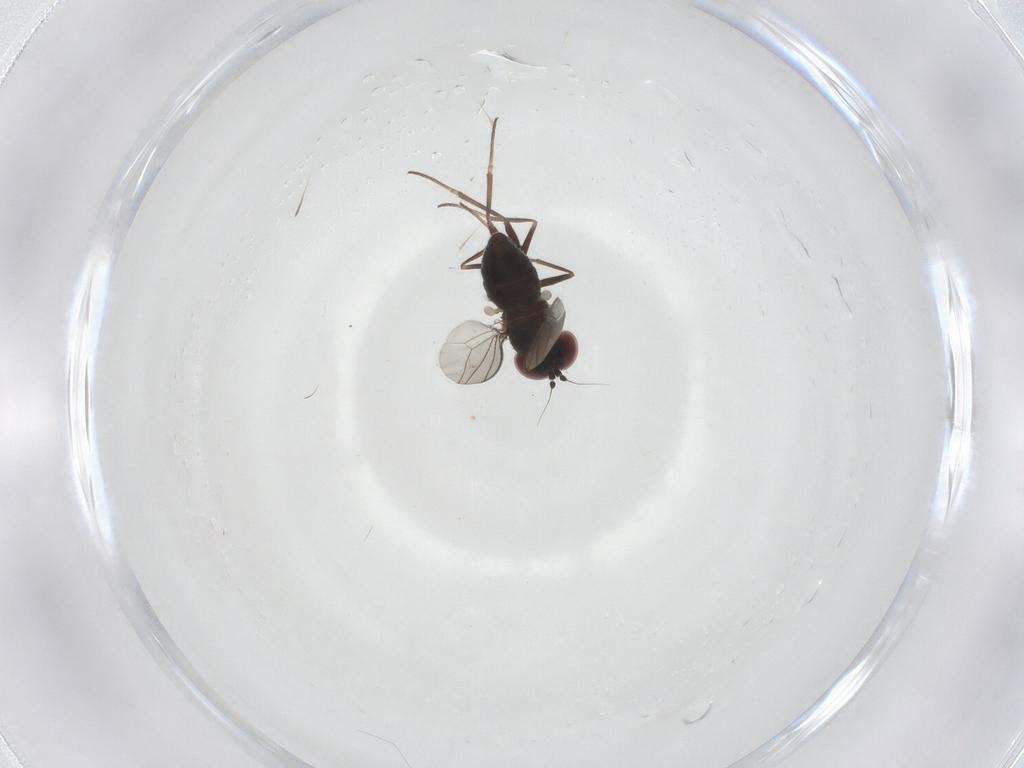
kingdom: Animalia
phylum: Arthropoda
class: Insecta
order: Diptera
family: Dolichopodidae
